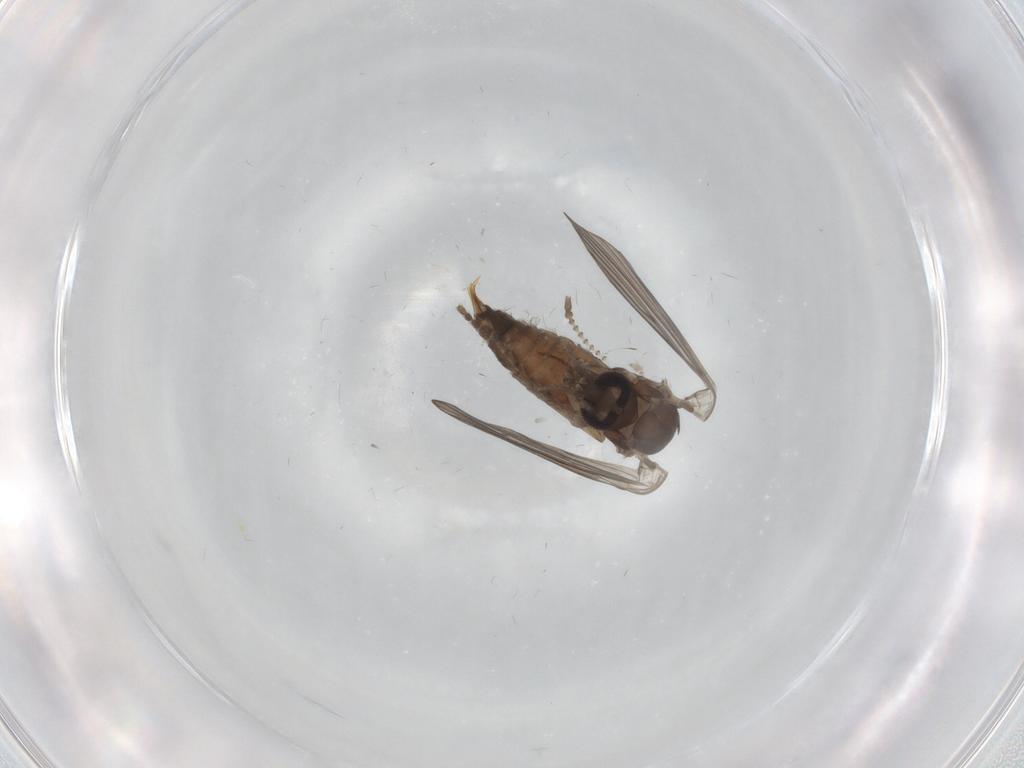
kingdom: Animalia
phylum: Arthropoda
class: Insecta
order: Diptera
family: Psychodidae
